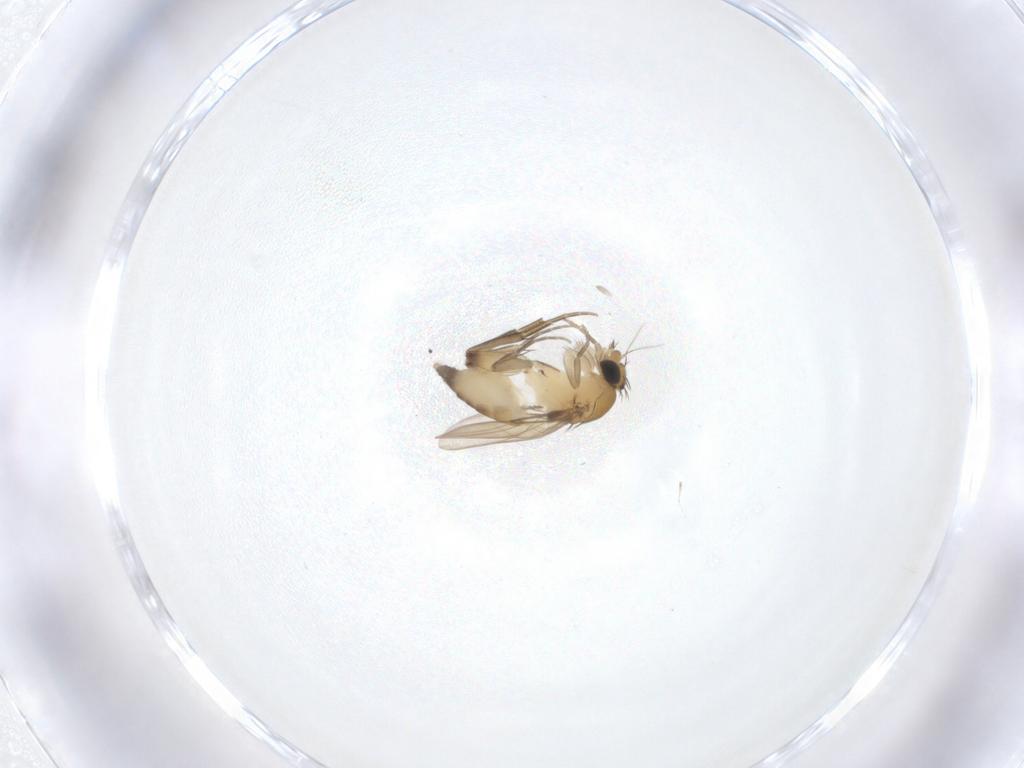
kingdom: Animalia
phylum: Arthropoda
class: Insecta
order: Diptera
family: Phoridae
